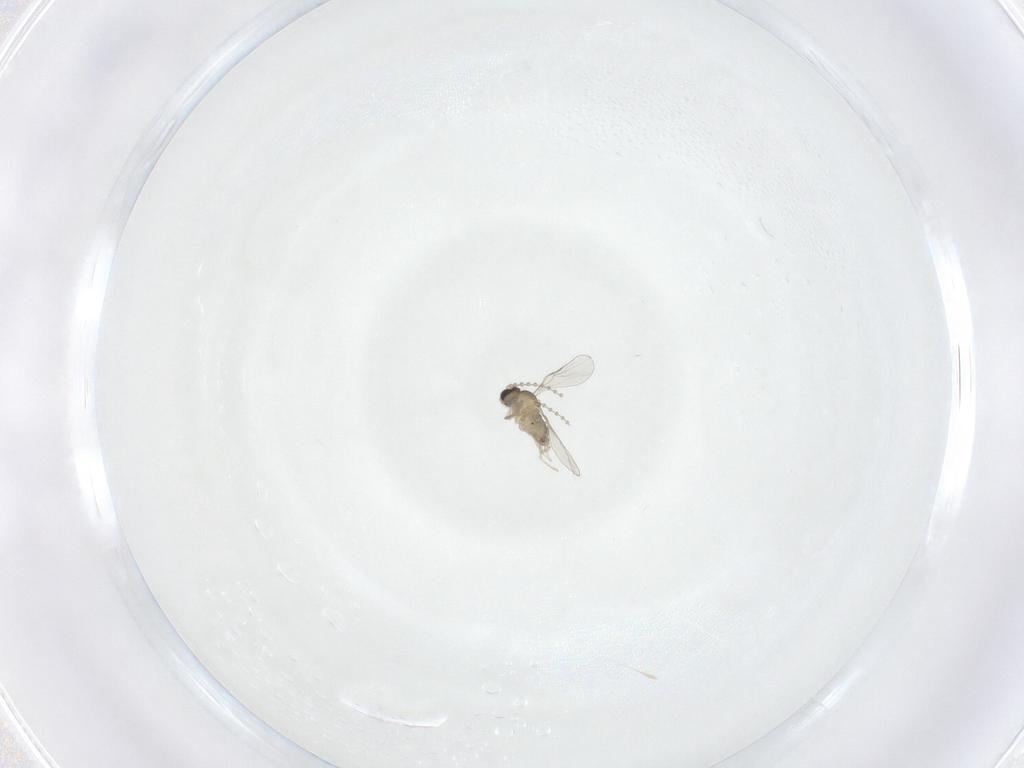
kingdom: Animalia
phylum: Arthropoda
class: Insecta
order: Diptera
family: Cecidomyiidae
